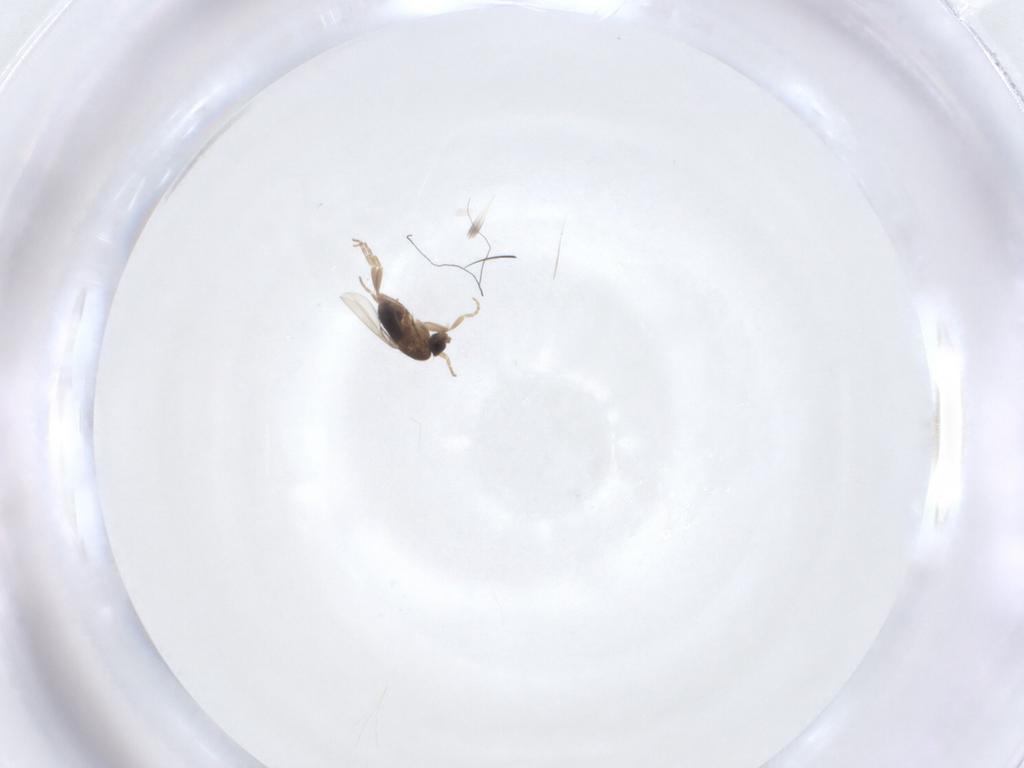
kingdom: Animalia
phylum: Arthropoda
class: Insecta
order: Diptera
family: Phoridae
